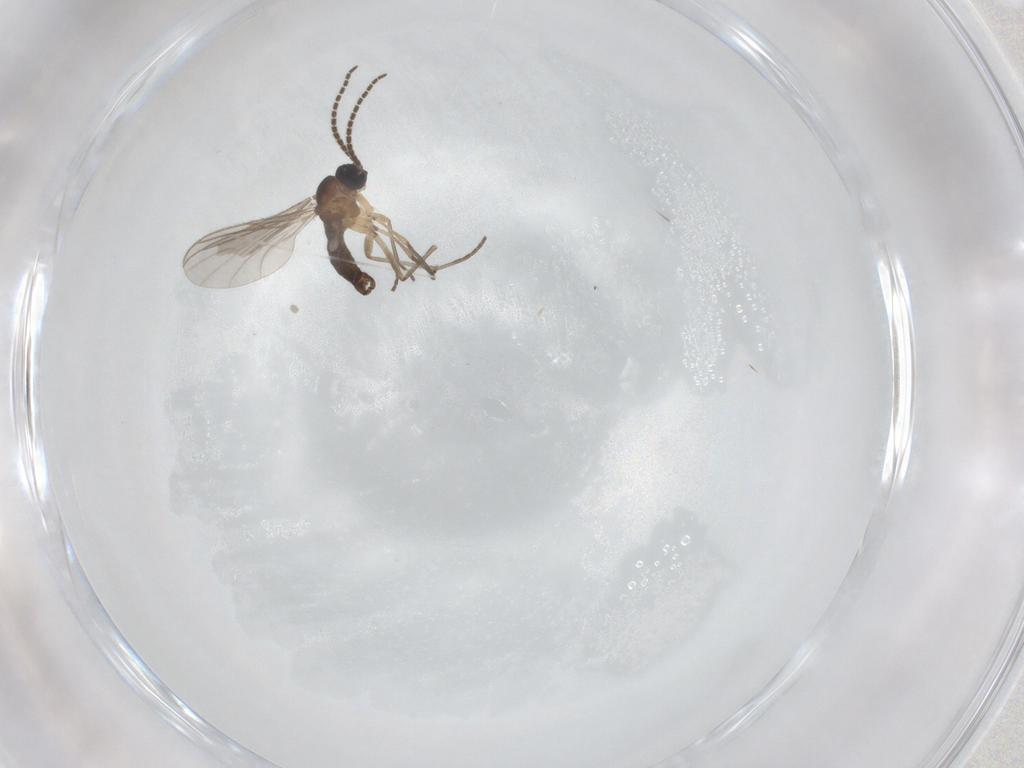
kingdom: Animalia
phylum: Arthropoda
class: Insecta
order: Diptera
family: Sciaridae
